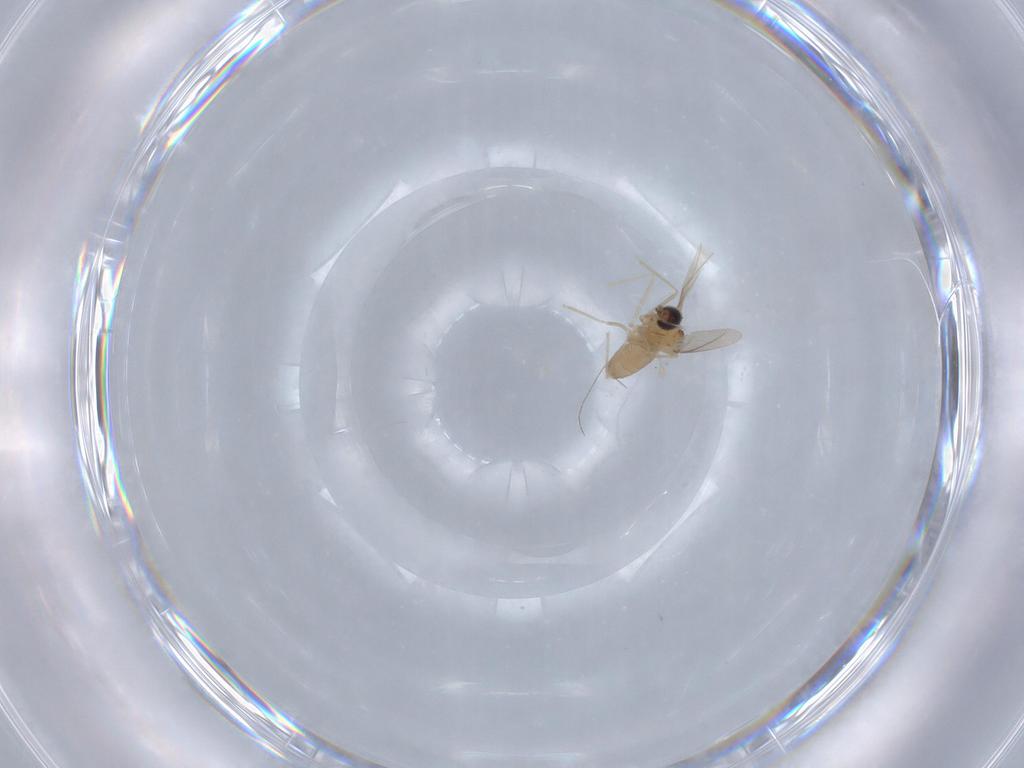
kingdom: Animalia
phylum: Arthropoda
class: Insecta
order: Diptera
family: Cecidomyiidae
